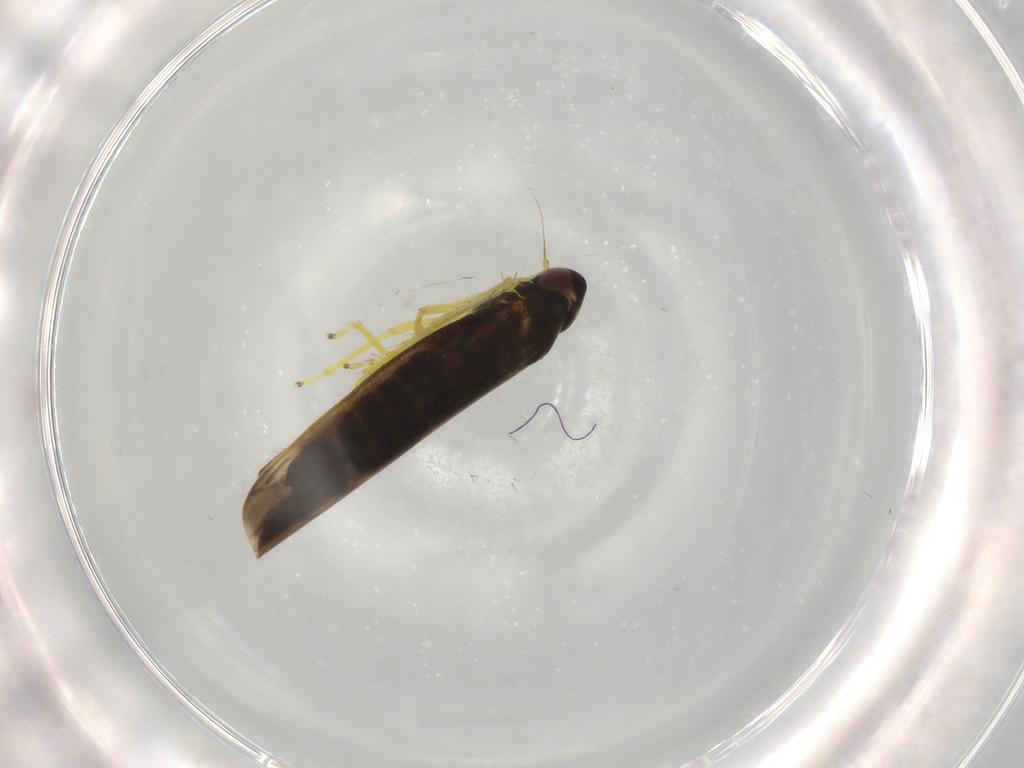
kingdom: Animalia
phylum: Arthropoda
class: Insecta
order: Hemiptera
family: Cicadellidae
